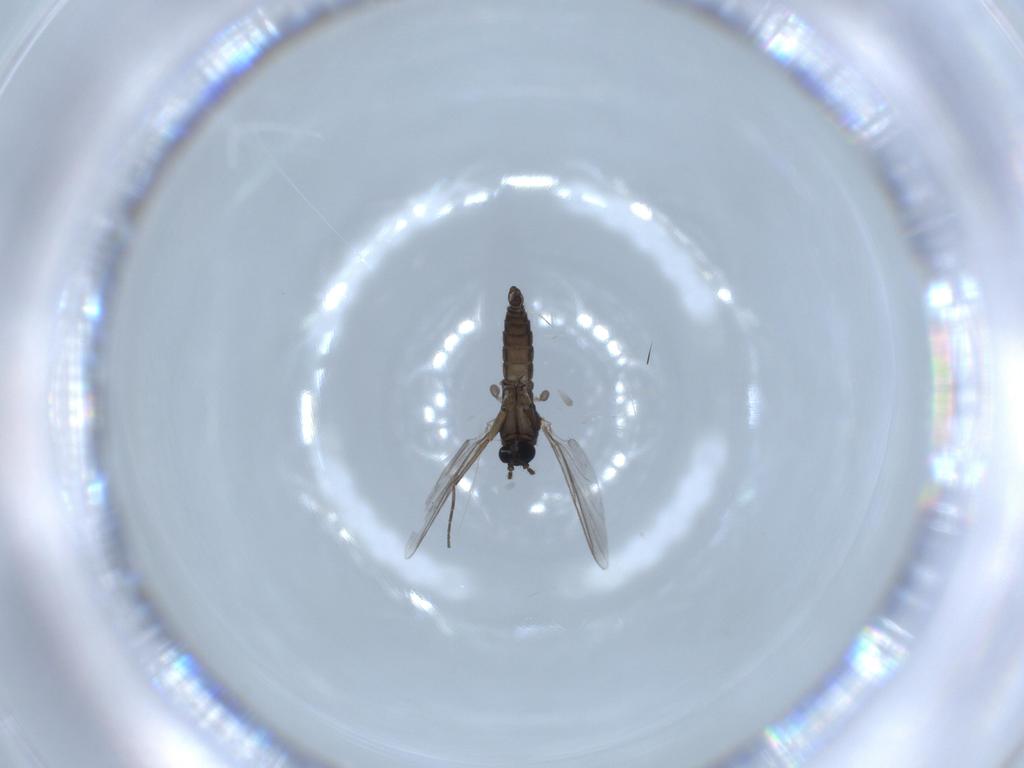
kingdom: Animalia
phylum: Arthropoda
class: Insecta
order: Diptera
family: Sciaridae
